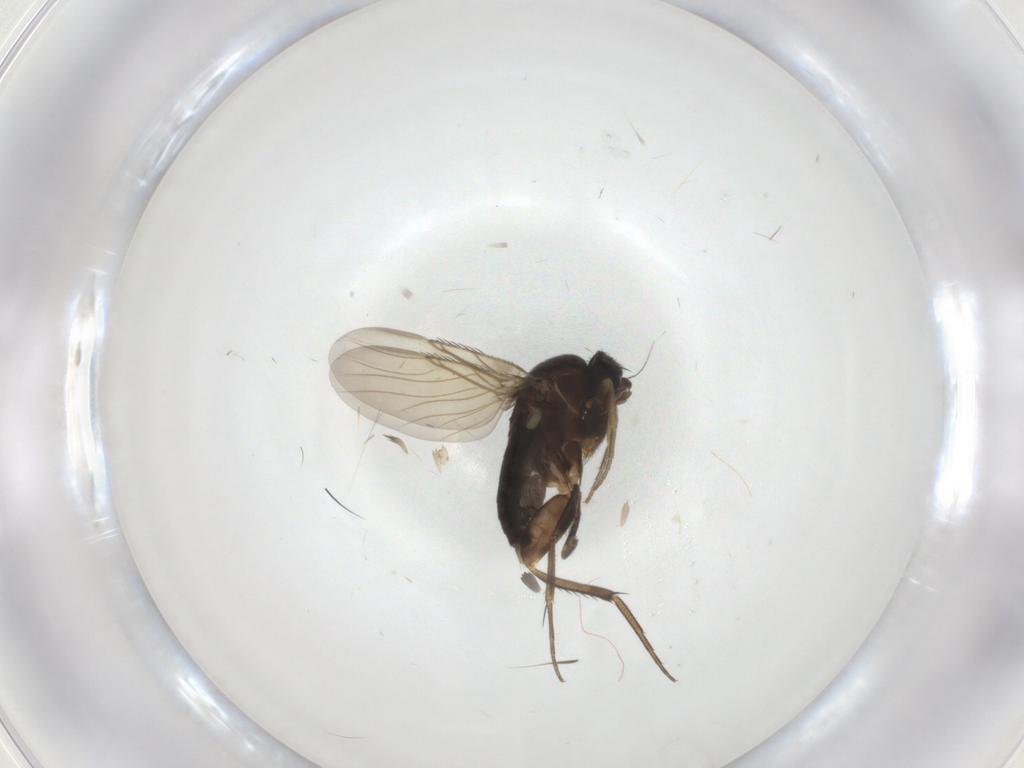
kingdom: Animalia
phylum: Arthropoda
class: Insecta
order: Diptera
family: Phoridae
